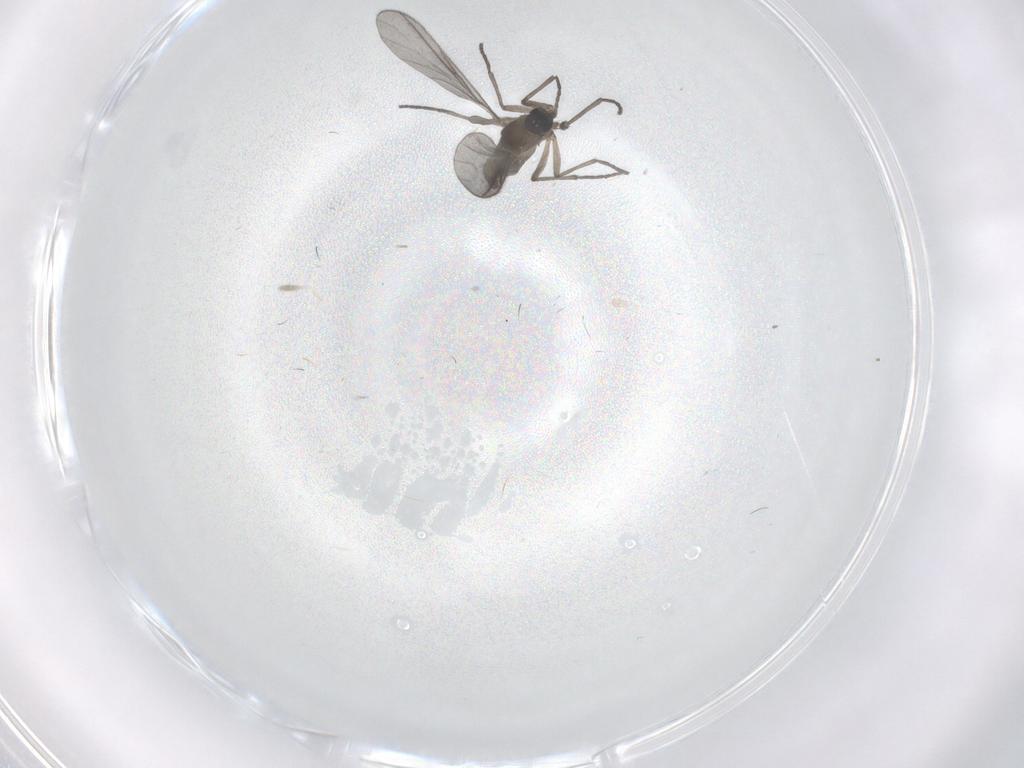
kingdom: Animalia
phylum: Arthropoda
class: Insecta
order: Diptera
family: Sciaridae
